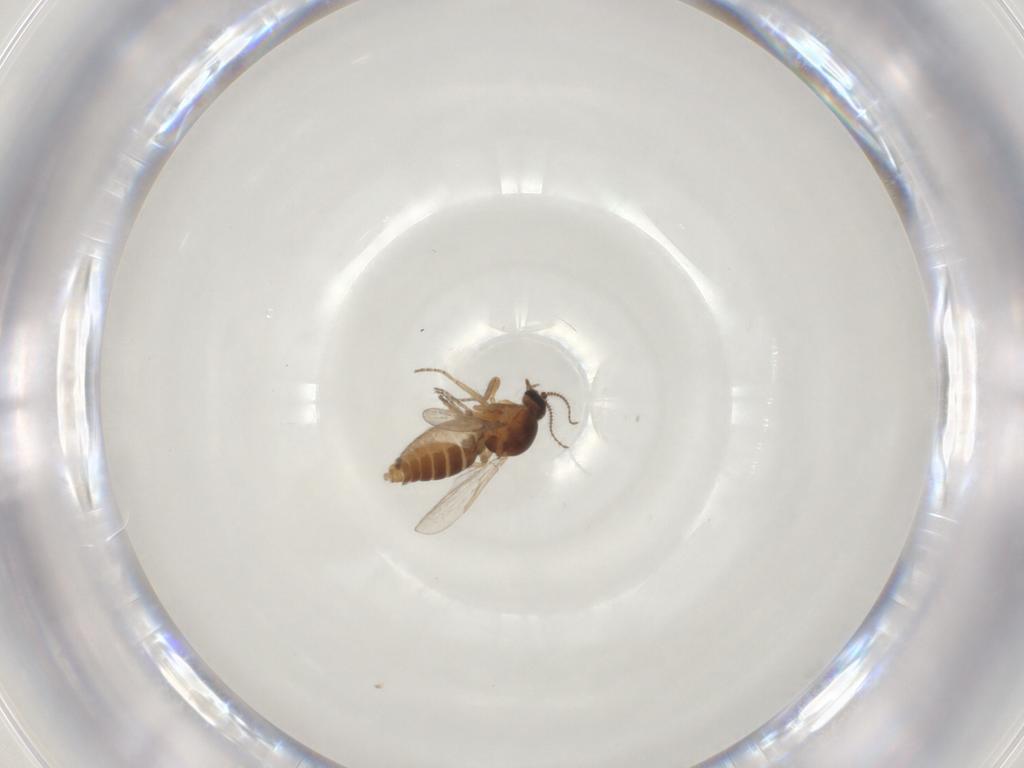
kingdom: Animalia
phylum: Arthropoda
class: Insecta
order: Diptera
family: Ceratopogonidae
